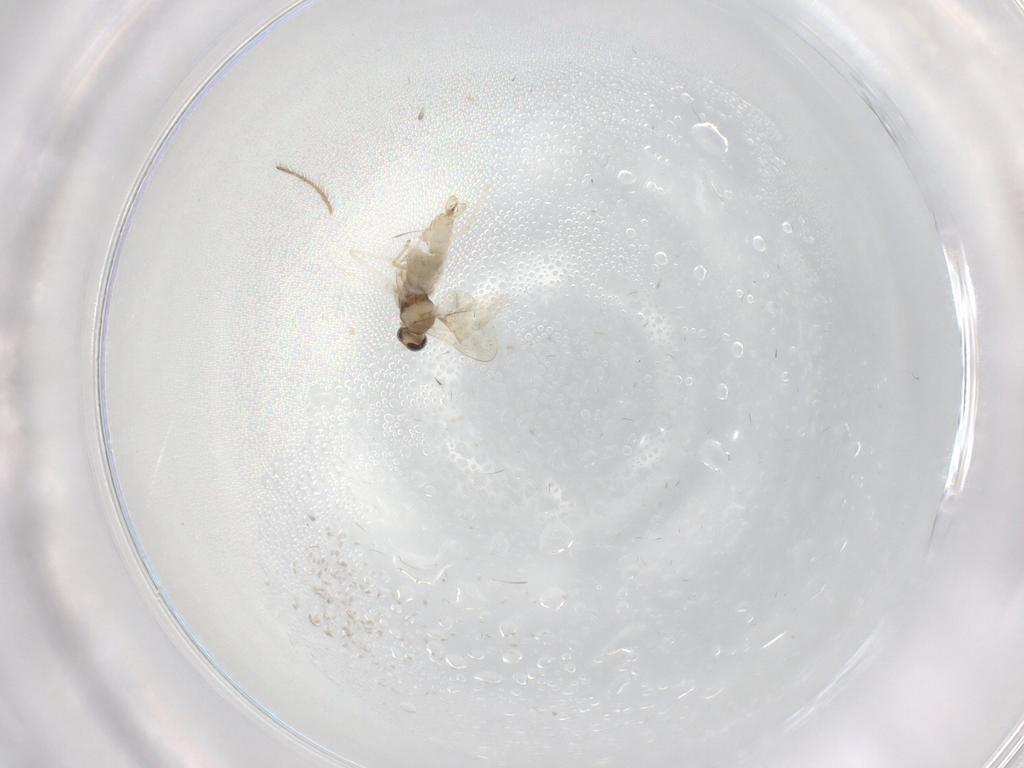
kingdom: Animalia
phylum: Arthropoda
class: Insecta
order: Diptera
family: Cecidomyiidae
